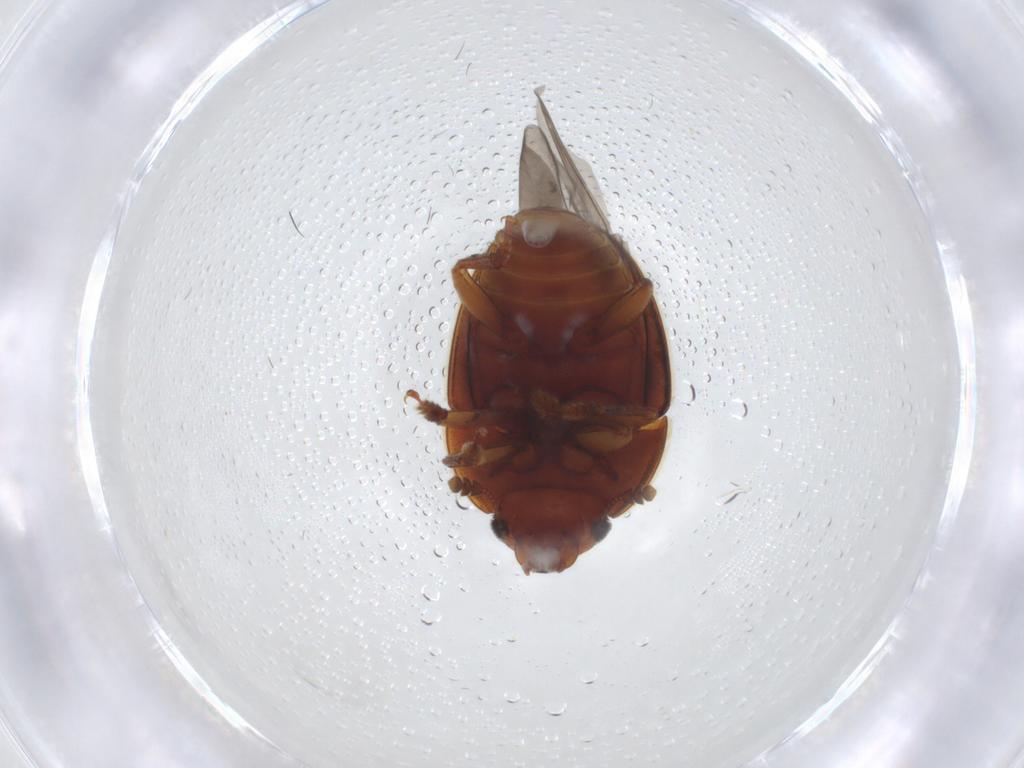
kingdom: Animalia
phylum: Arthropoda
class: Insecta
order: Coleoptera
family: Nitidulidae
